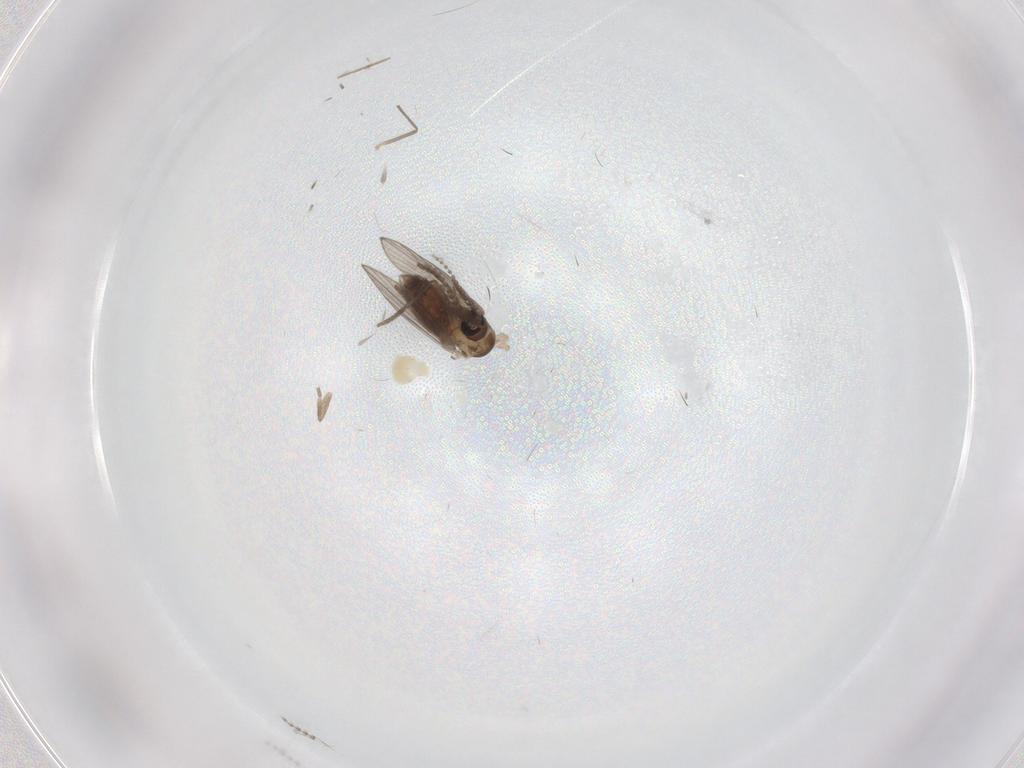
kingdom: Animalia
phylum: Arthropoda
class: Insecta
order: Diptera
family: Cecidomyiidae
